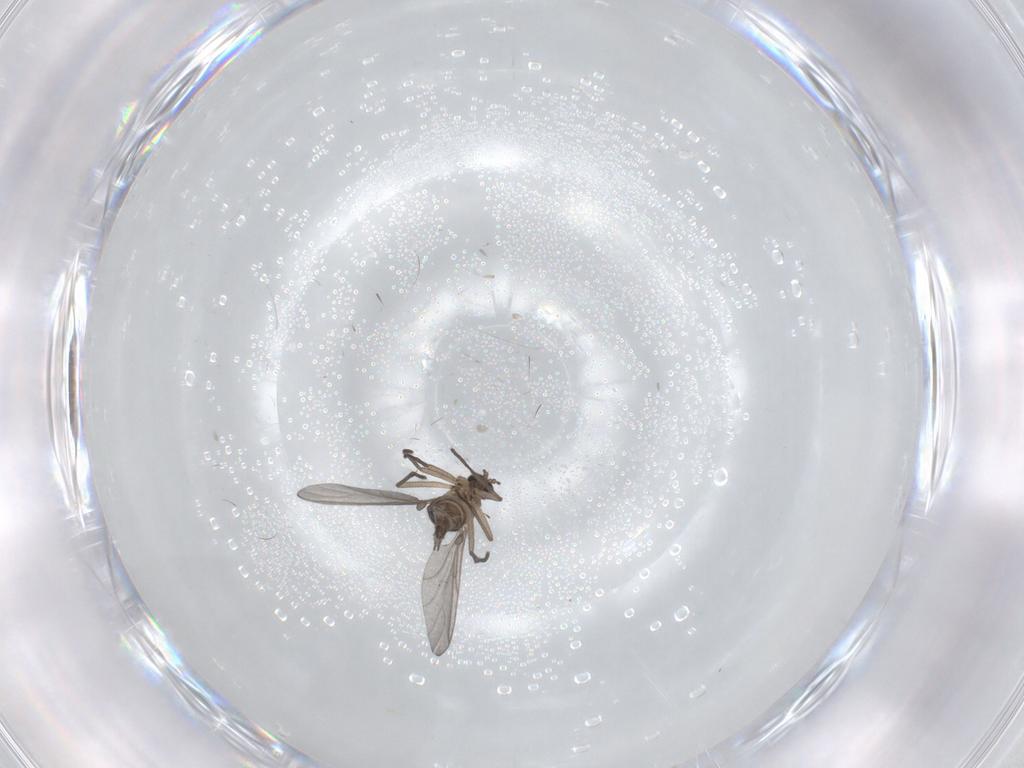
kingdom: Animalia
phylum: Arthropoda
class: Insecta
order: Diptera
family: Sciaridae
